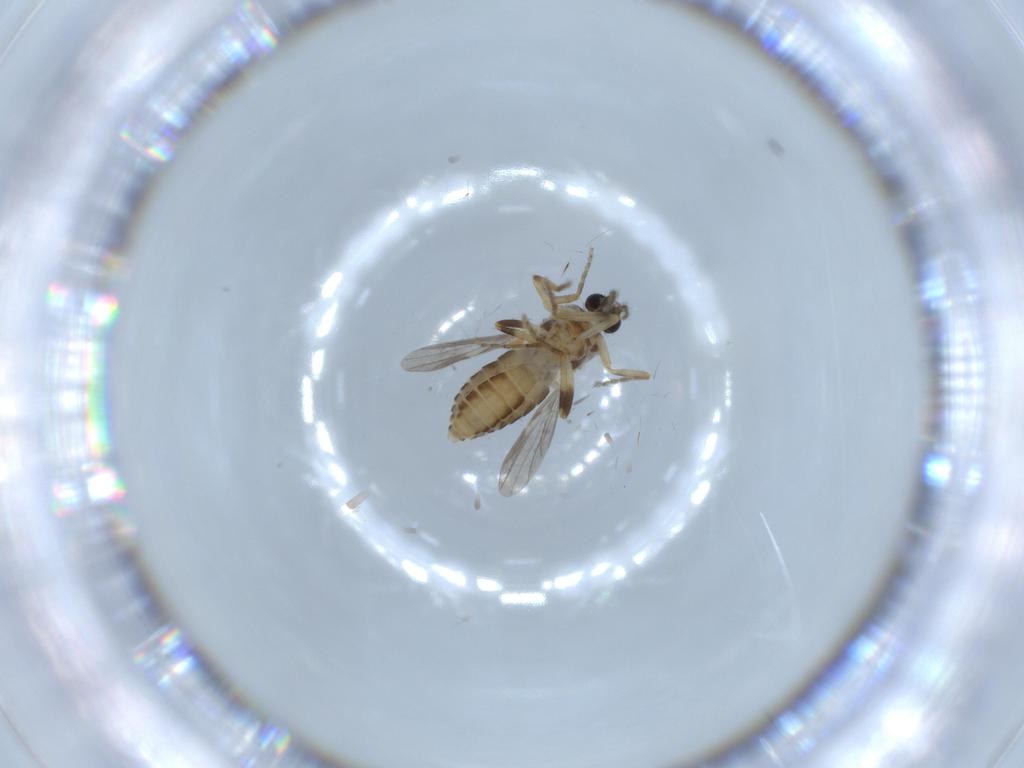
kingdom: Animalia
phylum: Arthropoda
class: Insecta
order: Diptera
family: Ceratopogonidae
